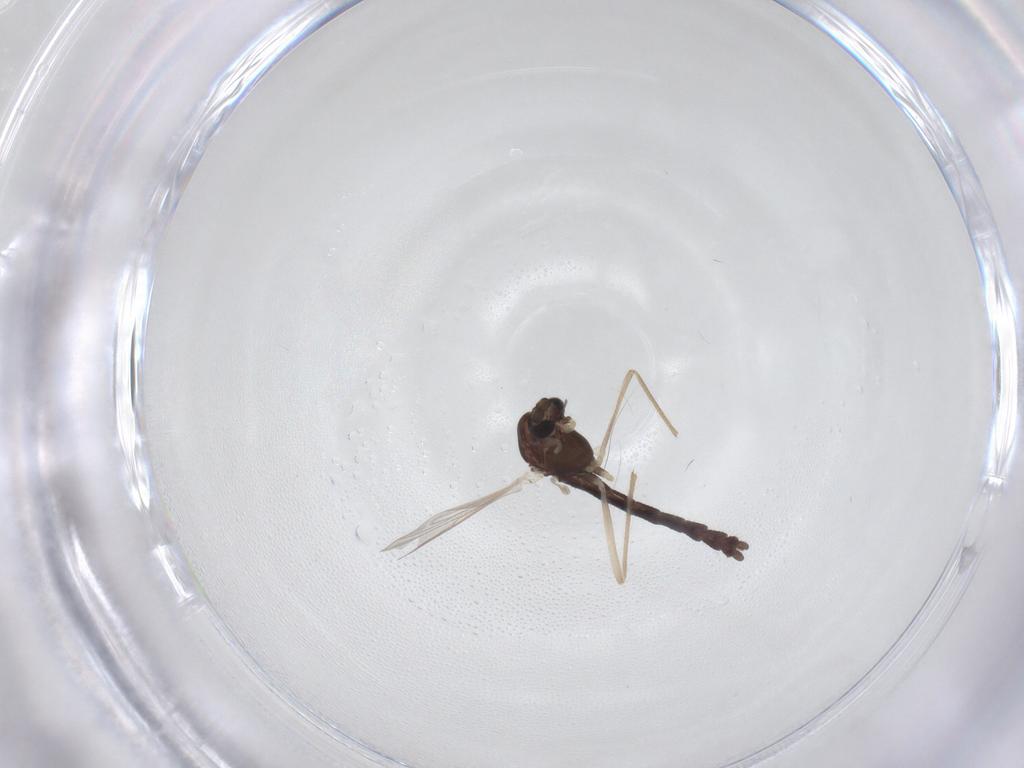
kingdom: Animalia
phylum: Arthropoda
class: Insecta
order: Diptera
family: Chironomidae
